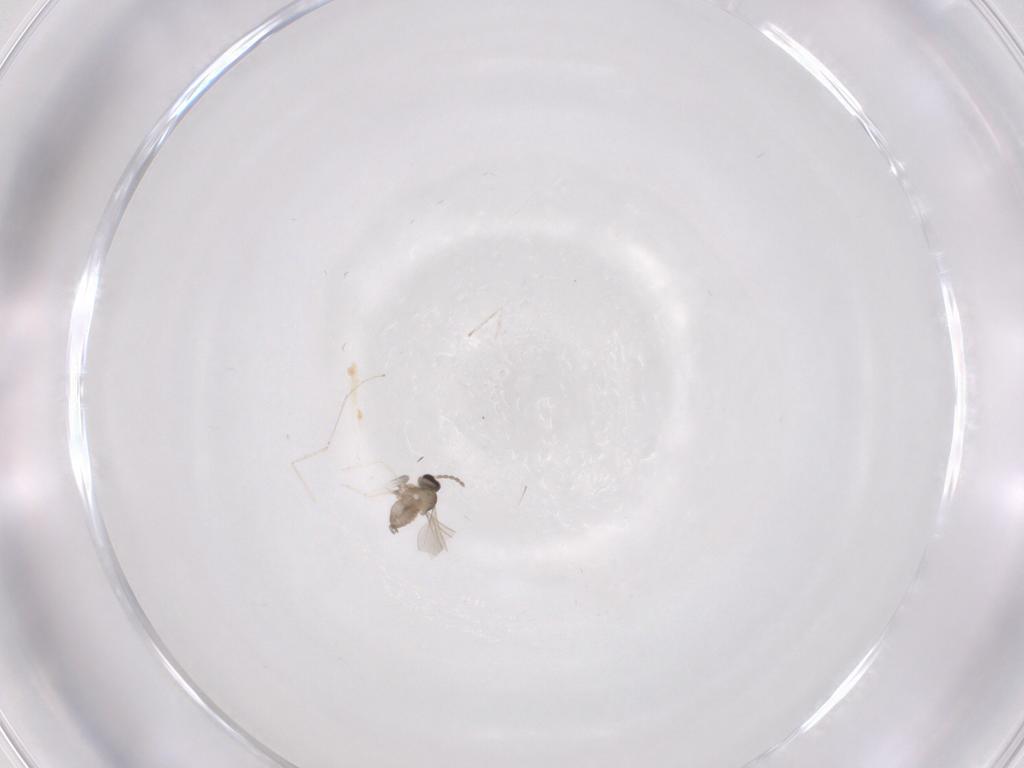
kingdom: Animalia
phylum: Arthropoda
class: Insecta
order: Diptera
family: Cecidomyiidae
